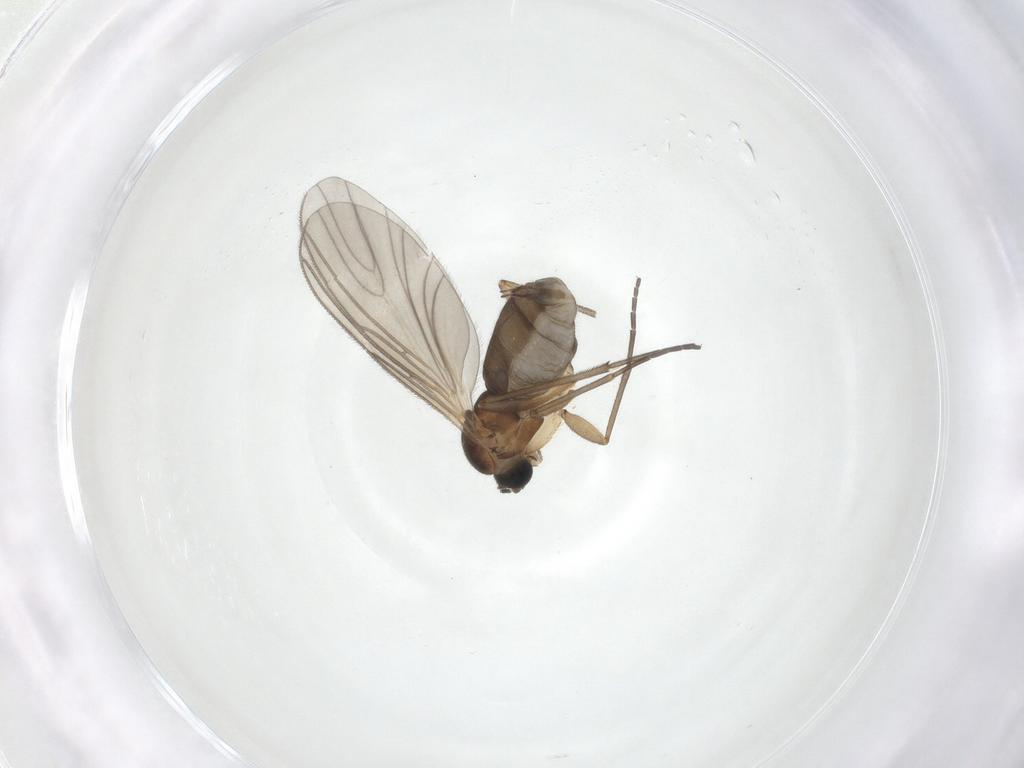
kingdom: Animalia
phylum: Arthropoda
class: Insecta
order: Diptera
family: Sciaridae
